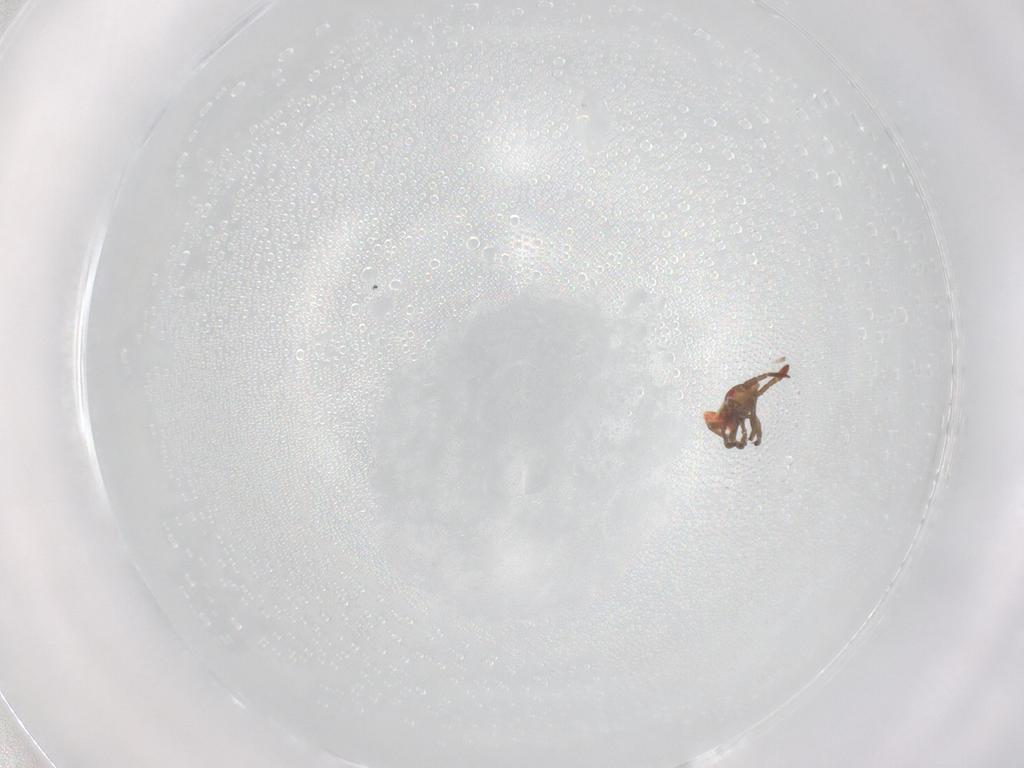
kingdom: Animalia
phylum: Arthropoda
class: Insecta
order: Hemiptera
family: Pachygronthidae
